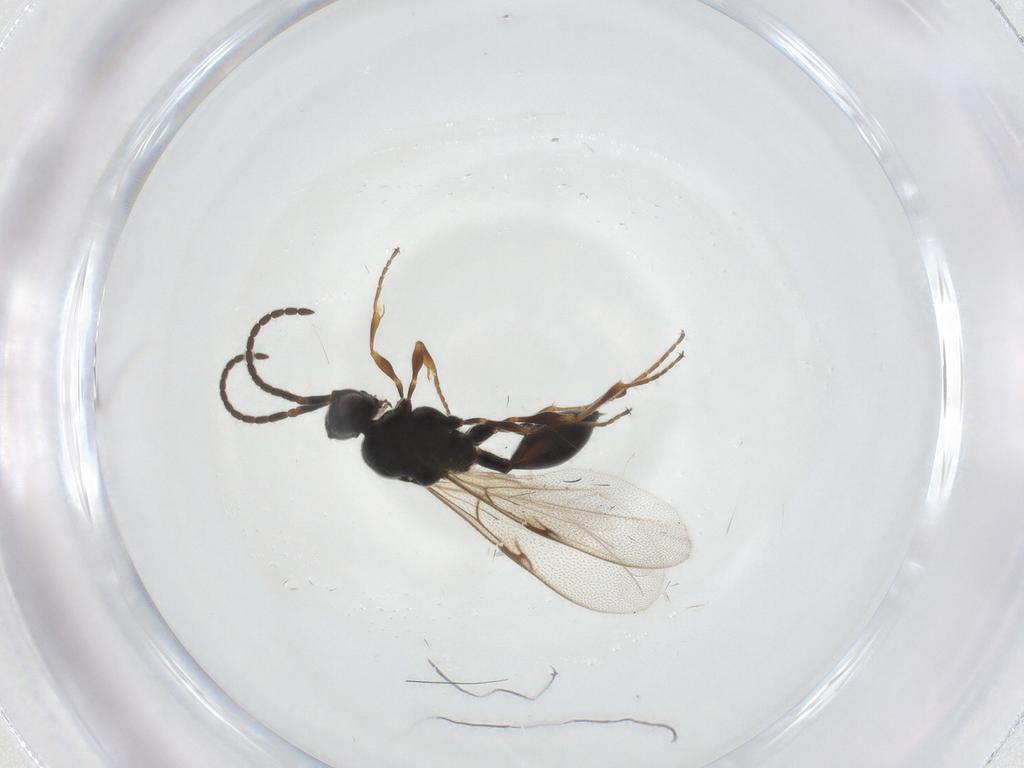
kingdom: Animalia
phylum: Arthropoda
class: Insecta
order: Hymenoptera
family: Diapriidae
